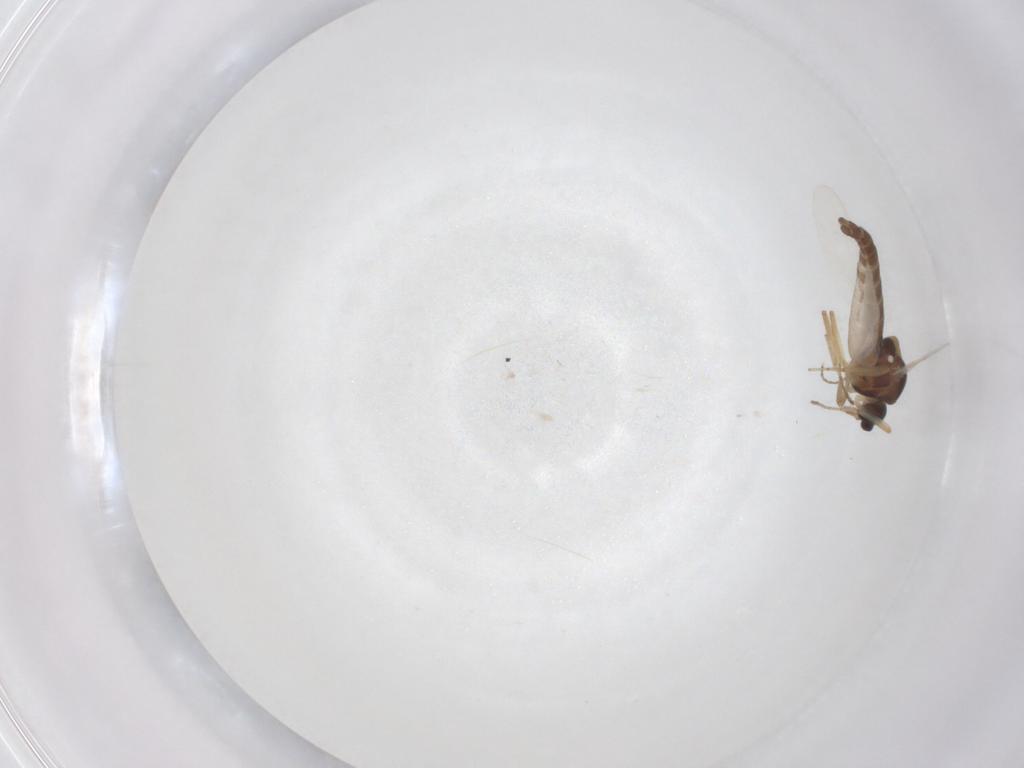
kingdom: Animalia
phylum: Arthropoda
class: Insecta
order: Diptera
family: Ceratopogonidae
